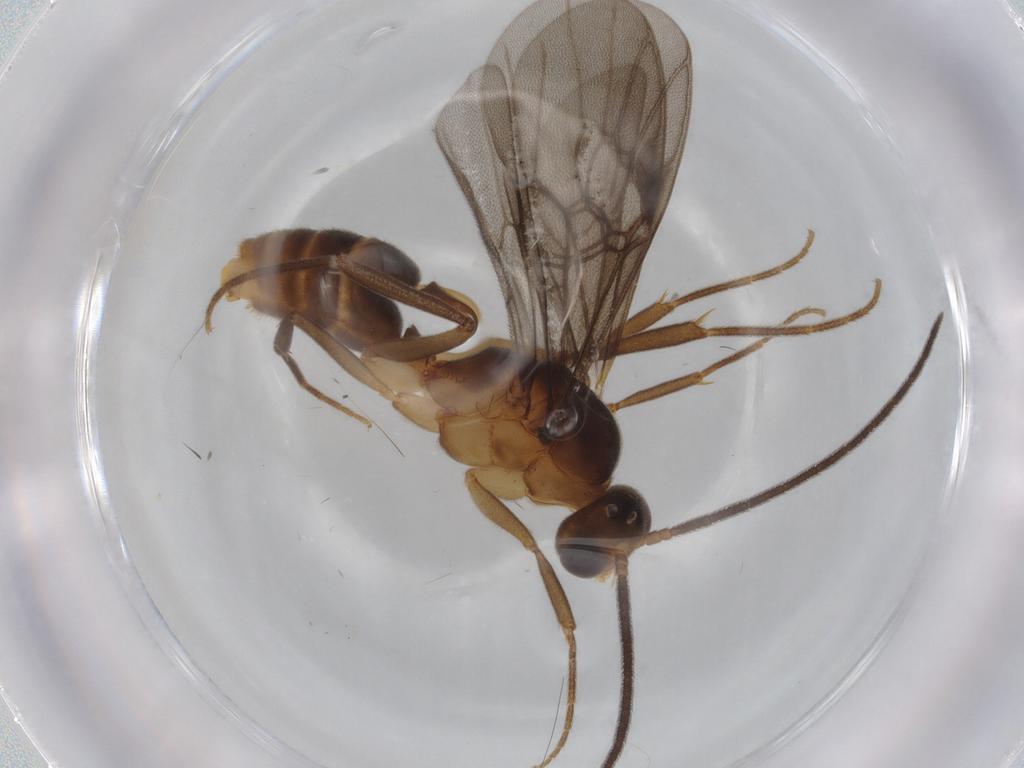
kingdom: Animalia
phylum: Arthropoda
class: Insecta
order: Hymenoptera
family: Formicidae
